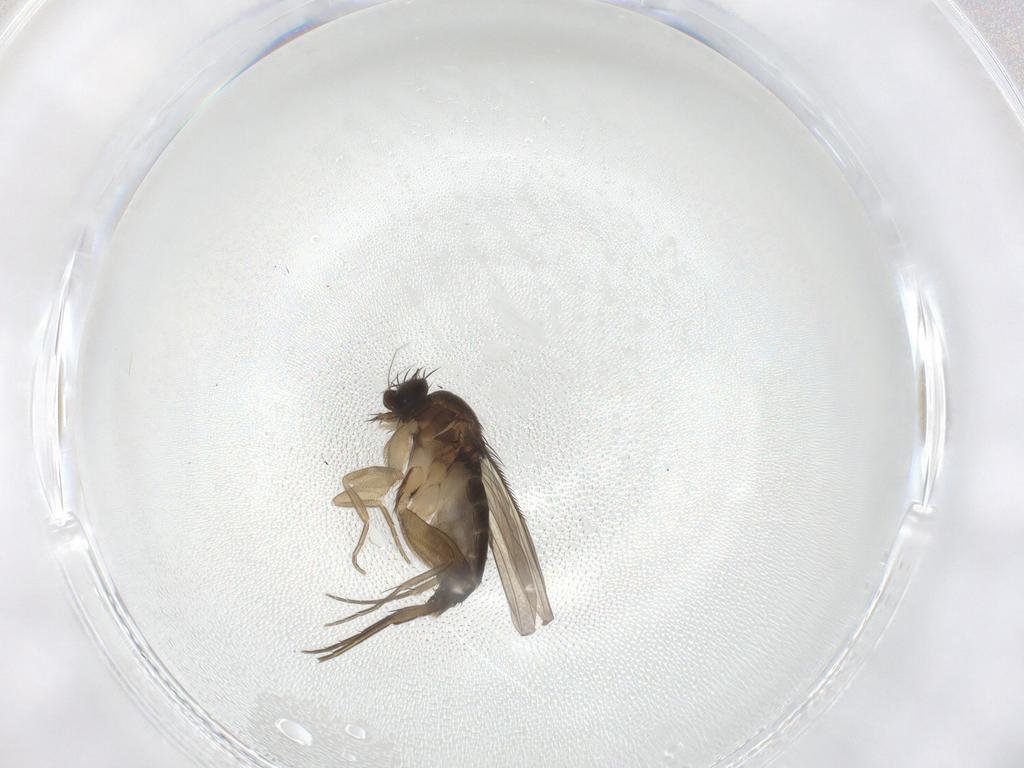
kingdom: Animalia
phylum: Arthropoda
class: Insecta
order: Diptera
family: Phoridae
